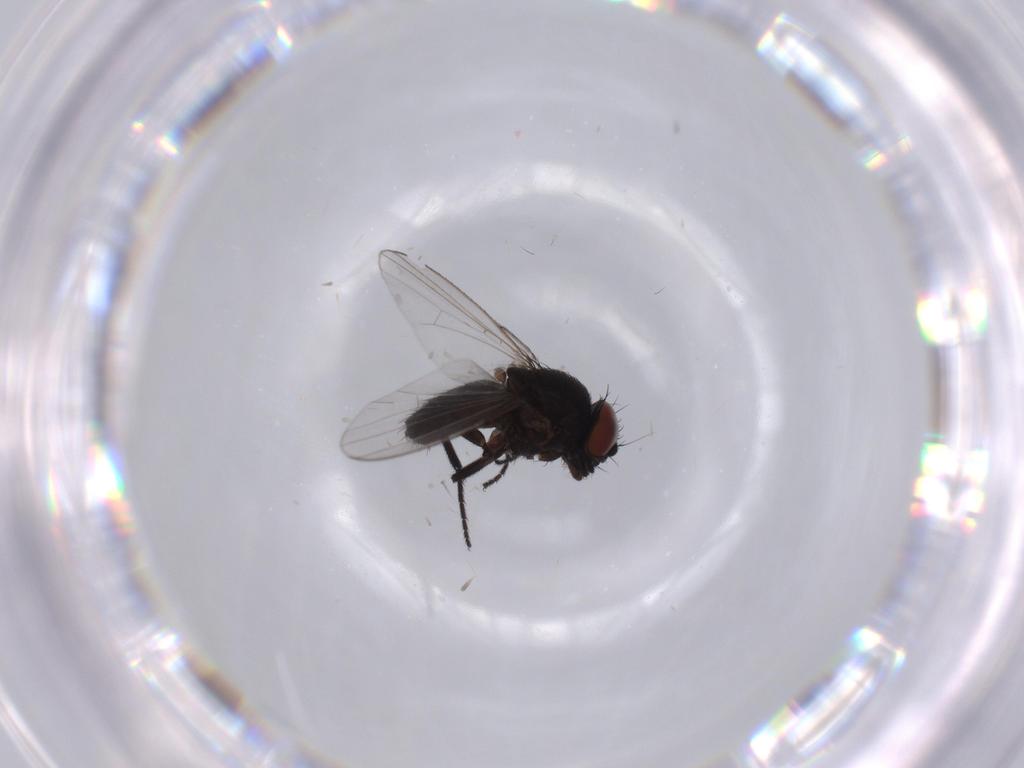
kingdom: Animalia
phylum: Arthropoda
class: Insecta
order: Diptera
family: Milichiidae
